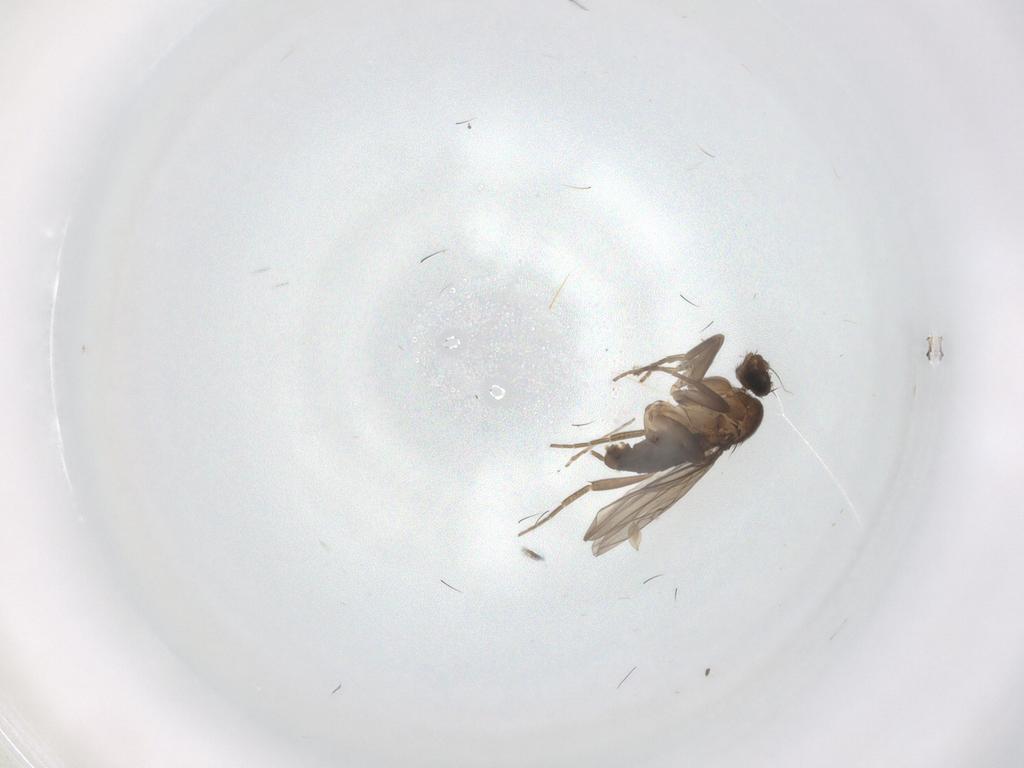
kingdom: Animalia
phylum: Arthropoda
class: Insecta
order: Diptera
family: Phoridae
